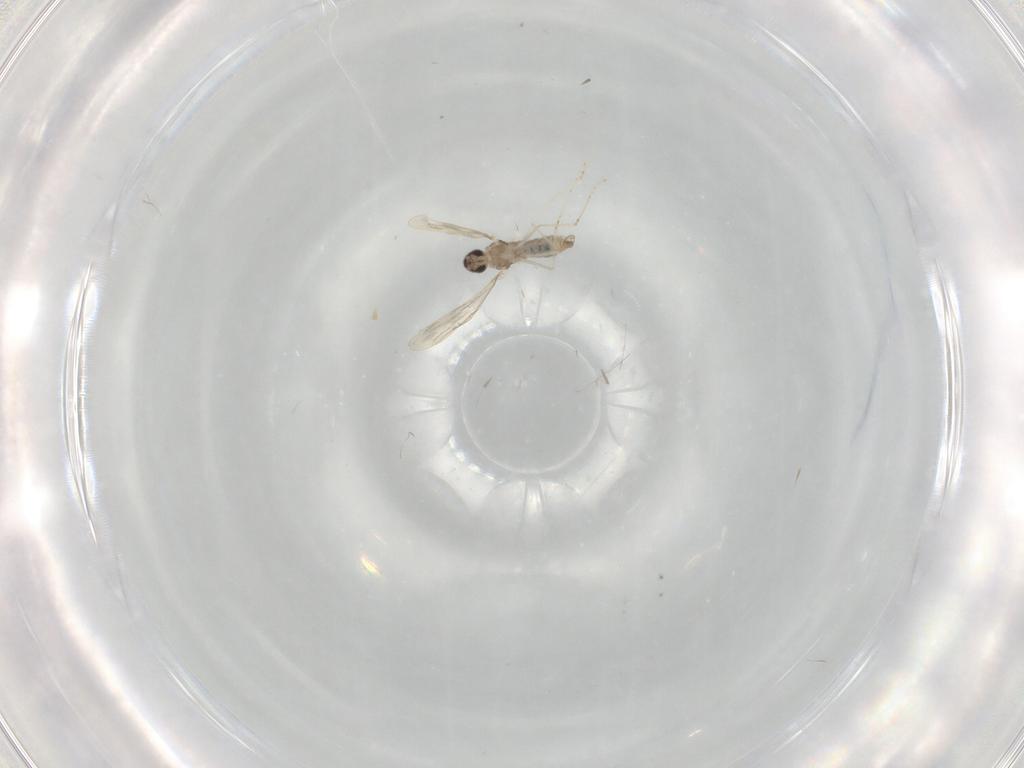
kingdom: Animalia
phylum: Arthropoda
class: Insecta
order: Diptera
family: Cecidomyiidae
